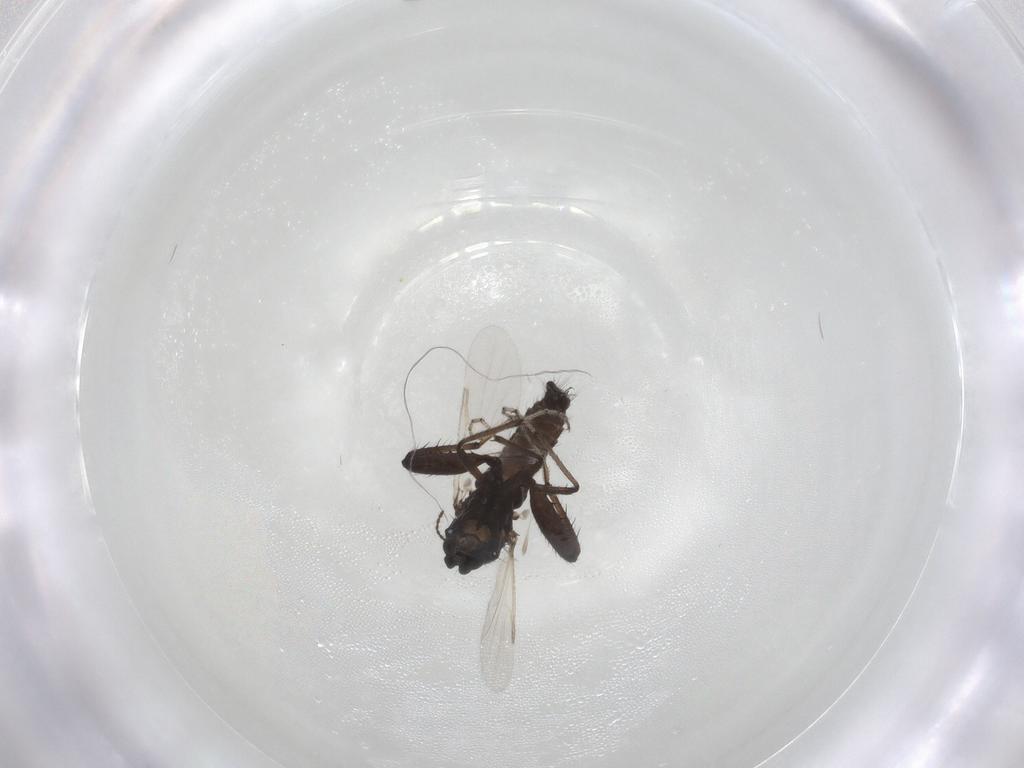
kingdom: Animalia
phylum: Arthropoda
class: Insecta
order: Diptera
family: Ceratopogonidae
